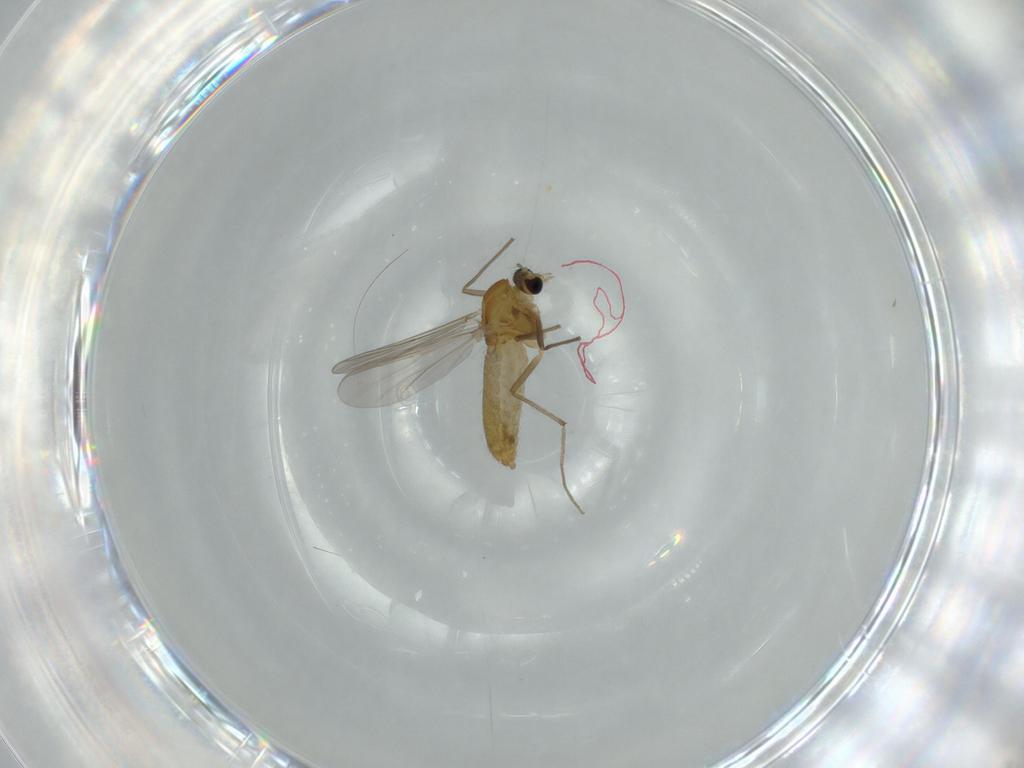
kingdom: Animalia
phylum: Arthropoda
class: Insecta
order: Diptera
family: Chironomidae
